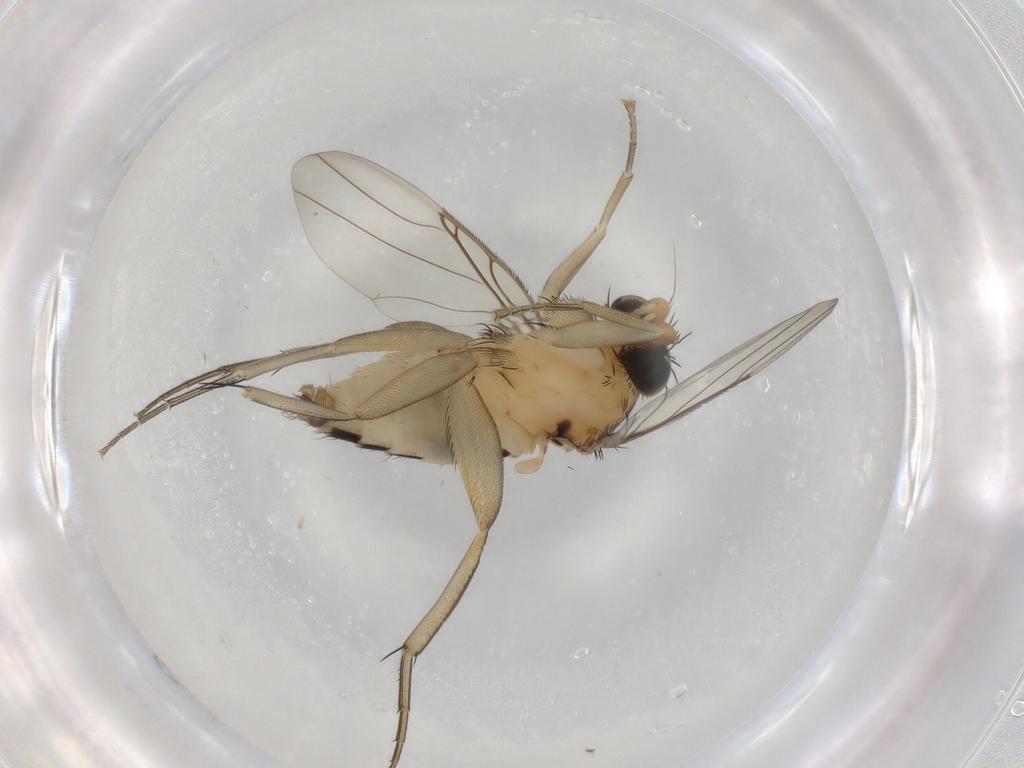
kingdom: Animalia
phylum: Arthropoda
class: Insecta
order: Diptera
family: Phoridae
